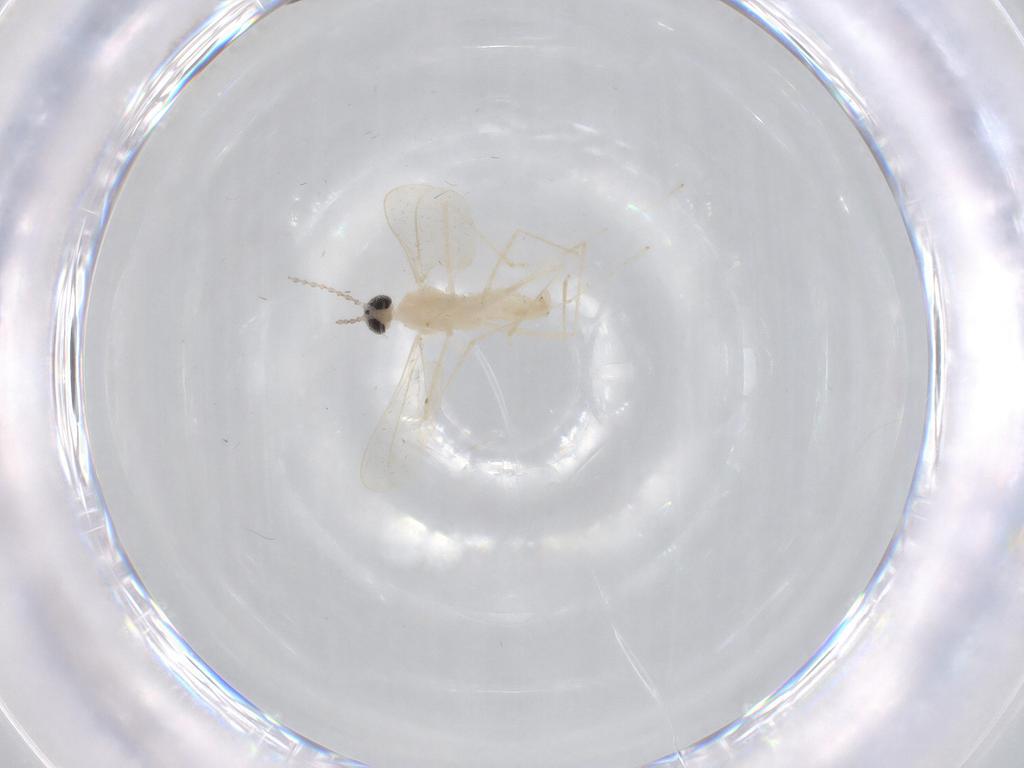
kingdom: Animalia
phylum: Arthropoda
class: Insecta
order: Diptera
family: Cecidomyiidae
